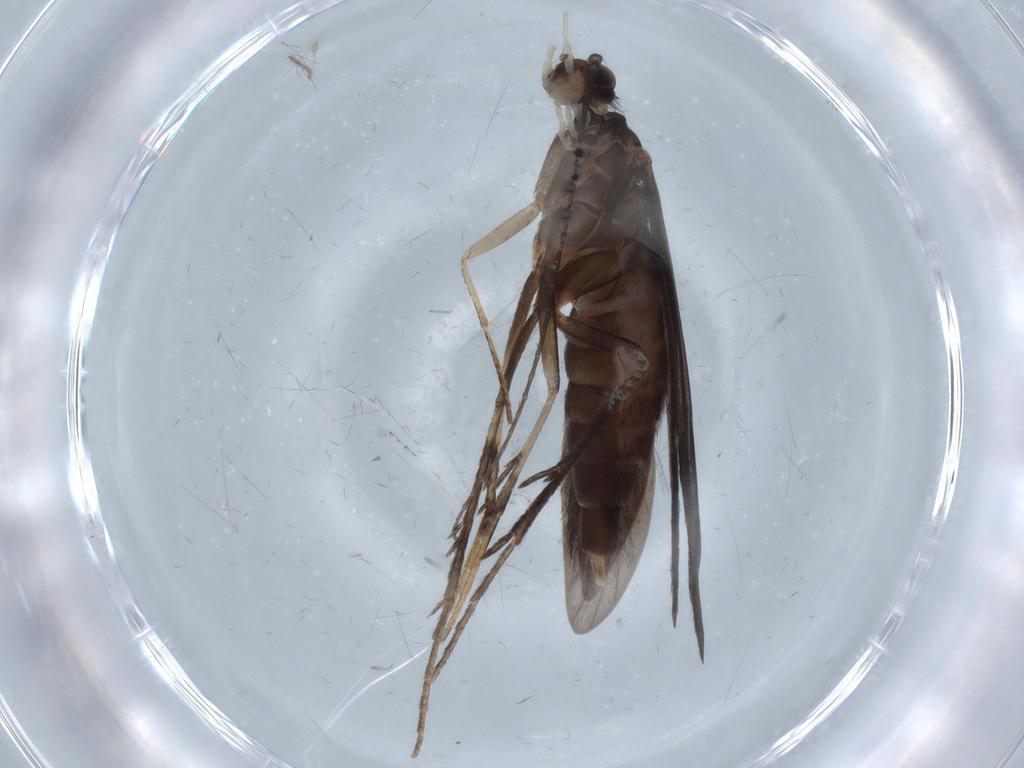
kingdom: Animalia
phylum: Arthropoda
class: Insecta
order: Trichoptera
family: Xiphocentronidae
